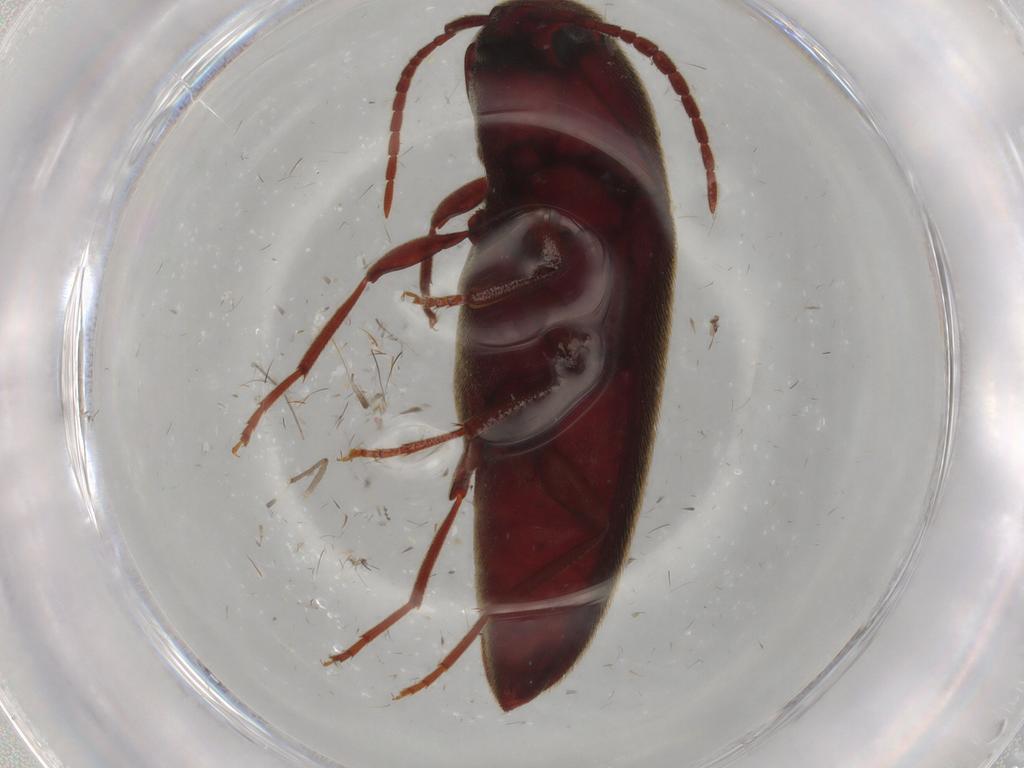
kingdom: Animalia
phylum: Arthropoda
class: Insecta
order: Coleoptera
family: Eucnemidae
